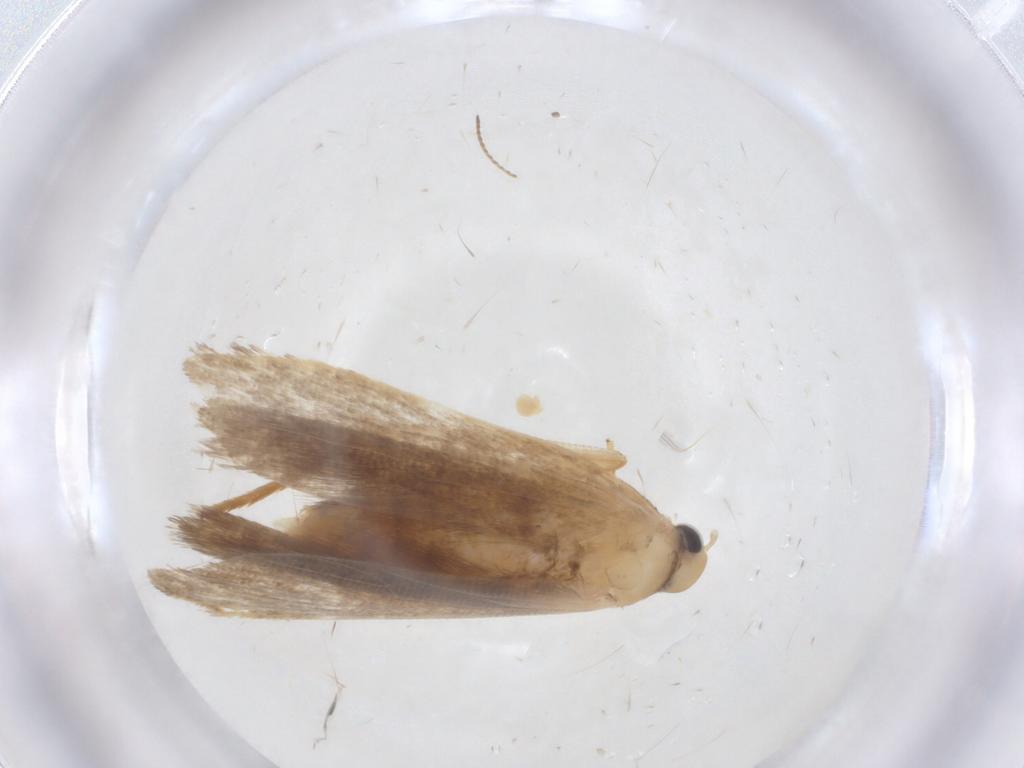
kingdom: Animalia
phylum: Arthropoda
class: Insecta
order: Lepidoptera
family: Gelechiidae
